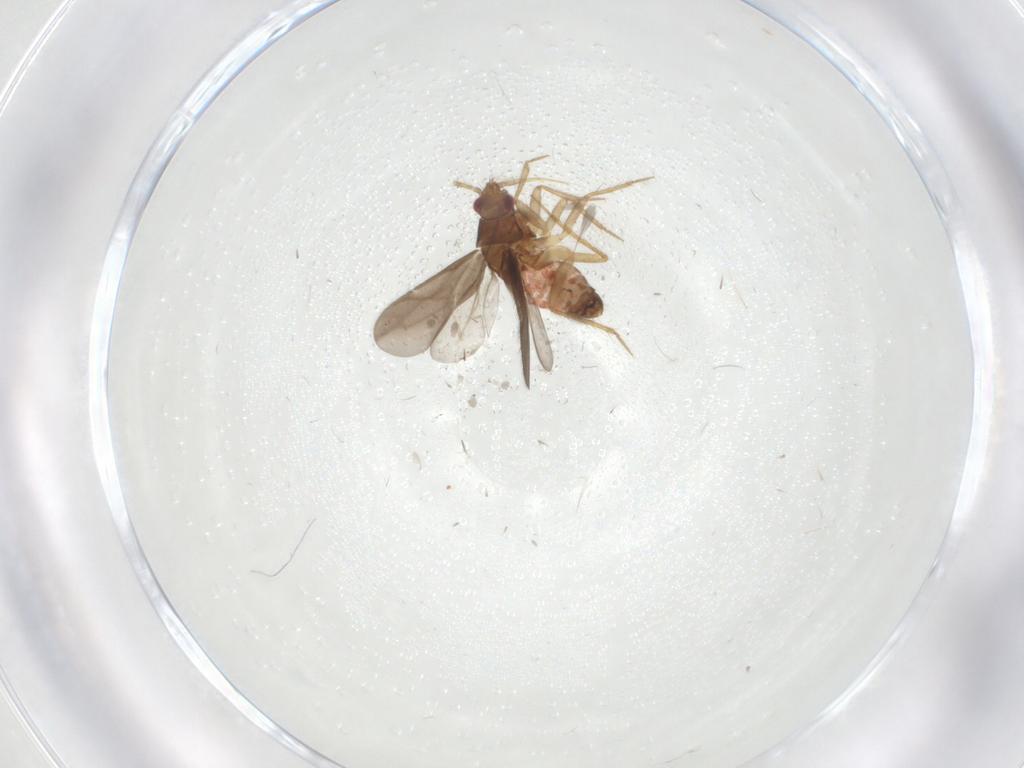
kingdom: Animalia
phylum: Arthropoda
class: Insecta
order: Hemiptera
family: Ceratocombidae
